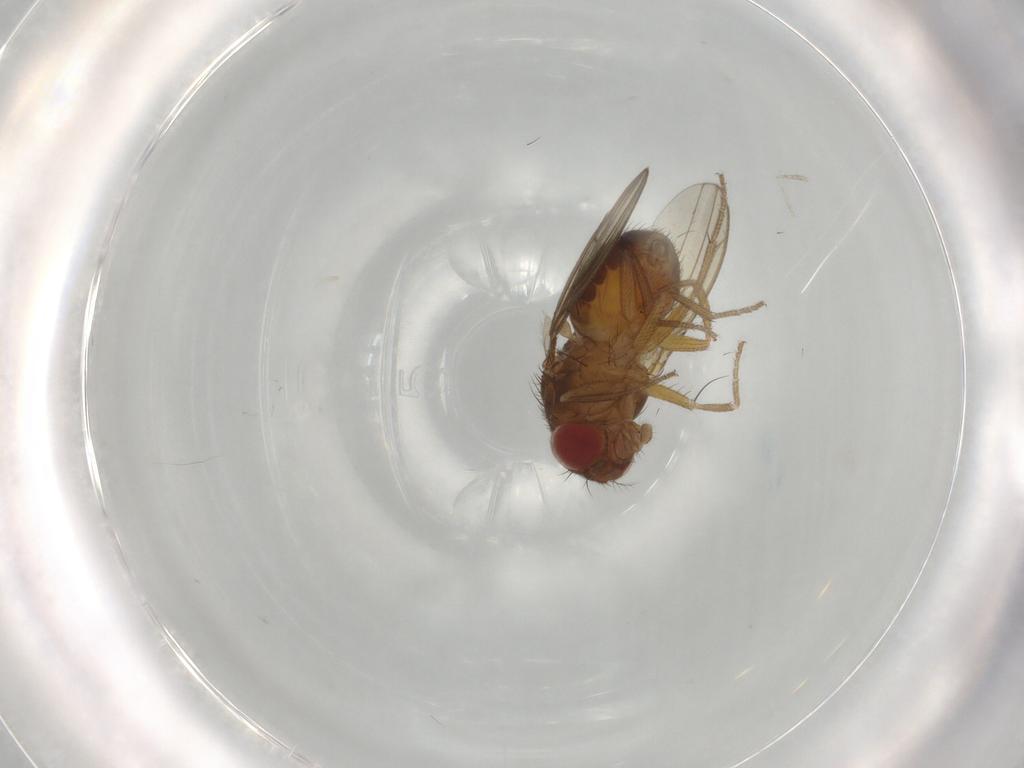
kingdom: Animalia
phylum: Arthropoda
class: Insecta
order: Diptera
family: Drosophilidae
